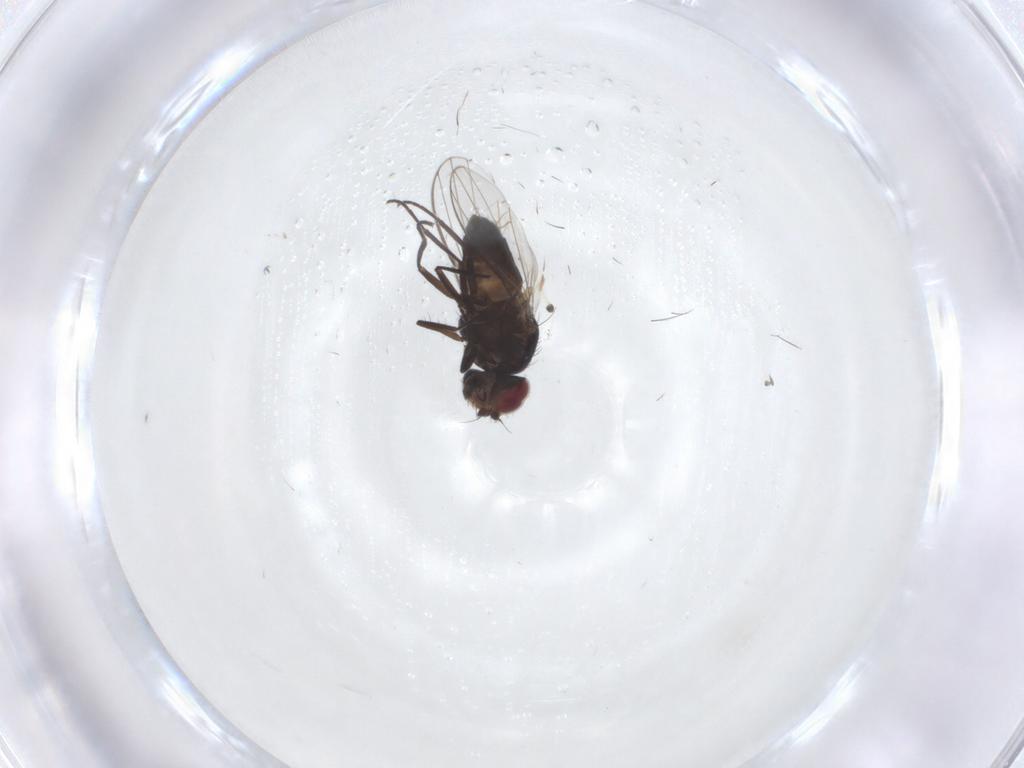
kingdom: Animalia
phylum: Arthropoda
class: Insecta
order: Diptera
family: Carnidae
